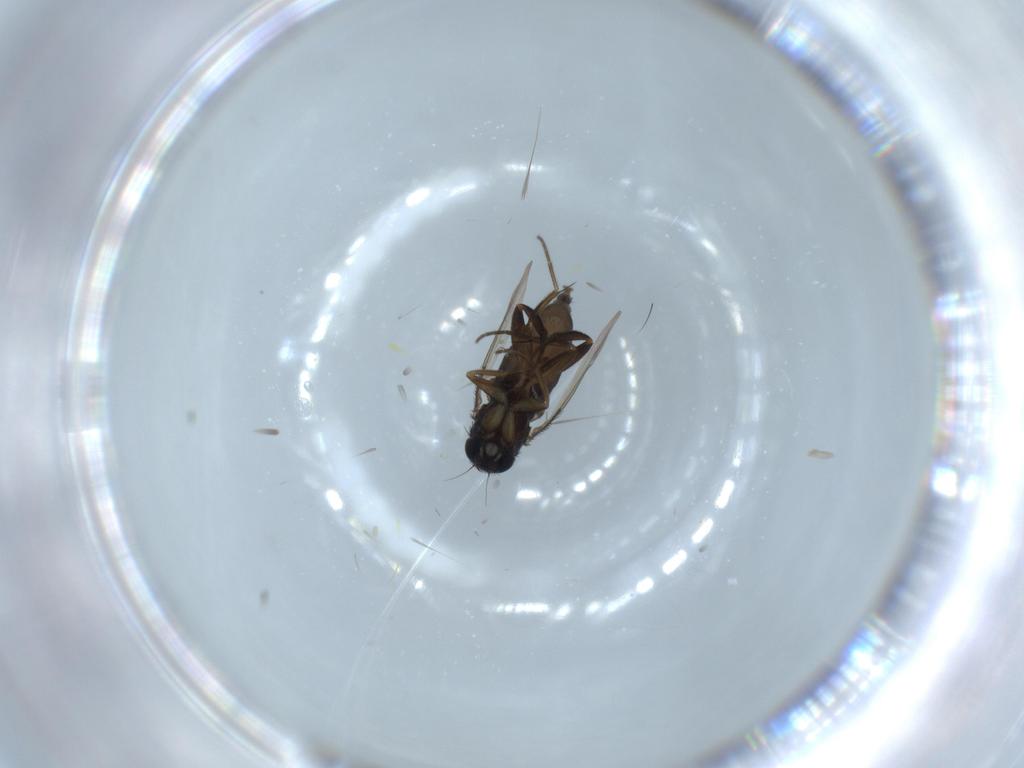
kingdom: Animalia
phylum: Arthropoda
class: Insecta
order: Diptera
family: Phoridae
